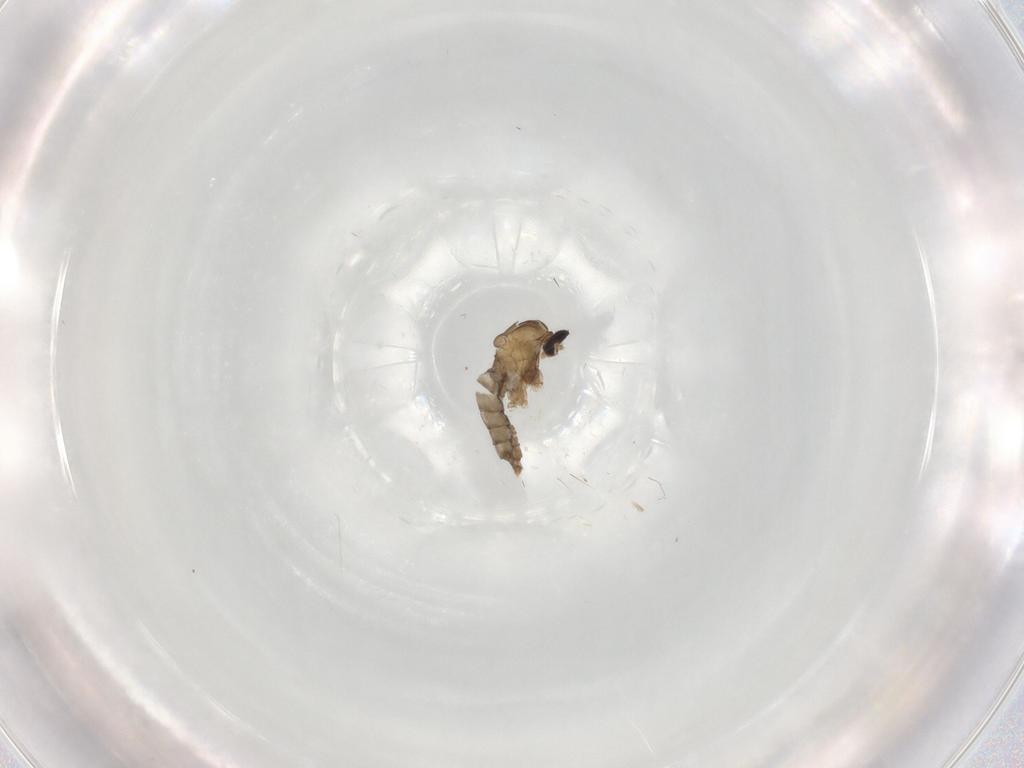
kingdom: Animalia
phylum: Arthropoda
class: Insecta
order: Diptera
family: Cecidomyiidae
